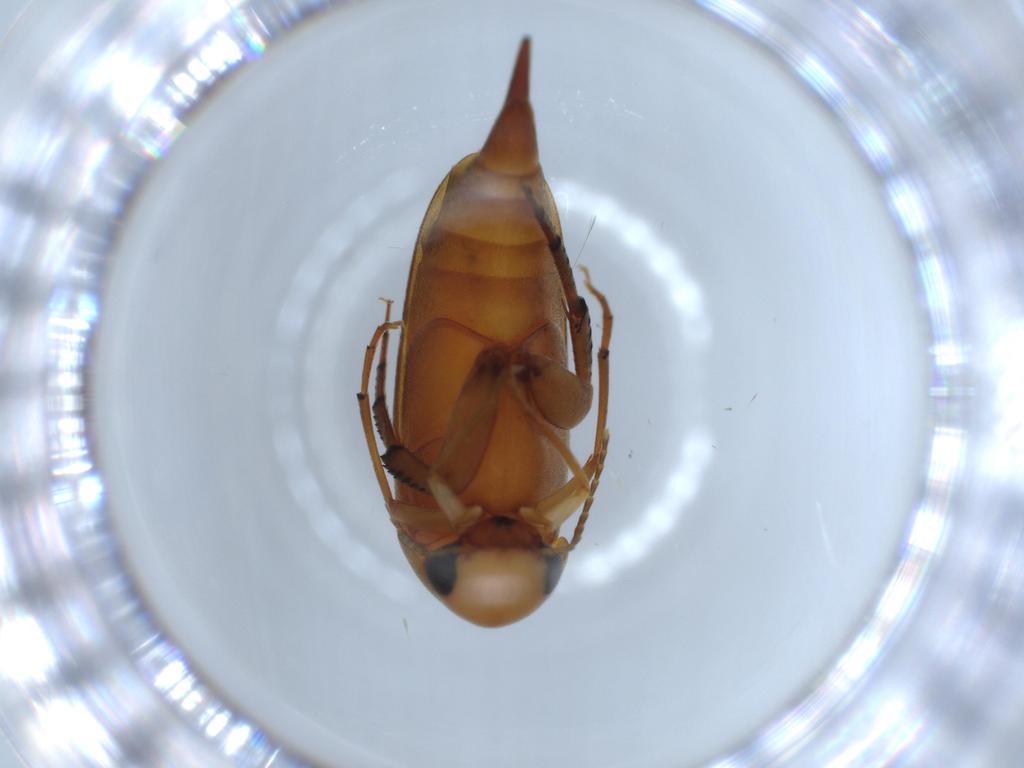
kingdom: Animalia
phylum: Arthropoda
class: Insecta
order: Coleoptera
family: Mordellidae
